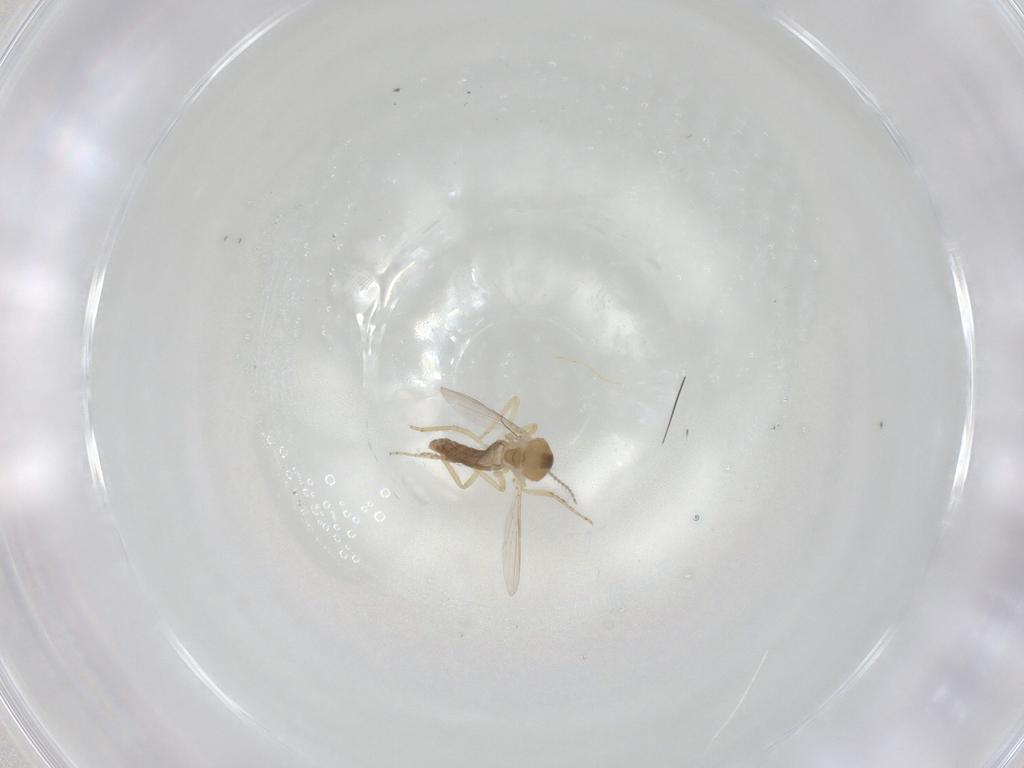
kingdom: Animalia
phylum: Arthropoda
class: Insecta
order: Diptera
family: Ceratopogonidae
